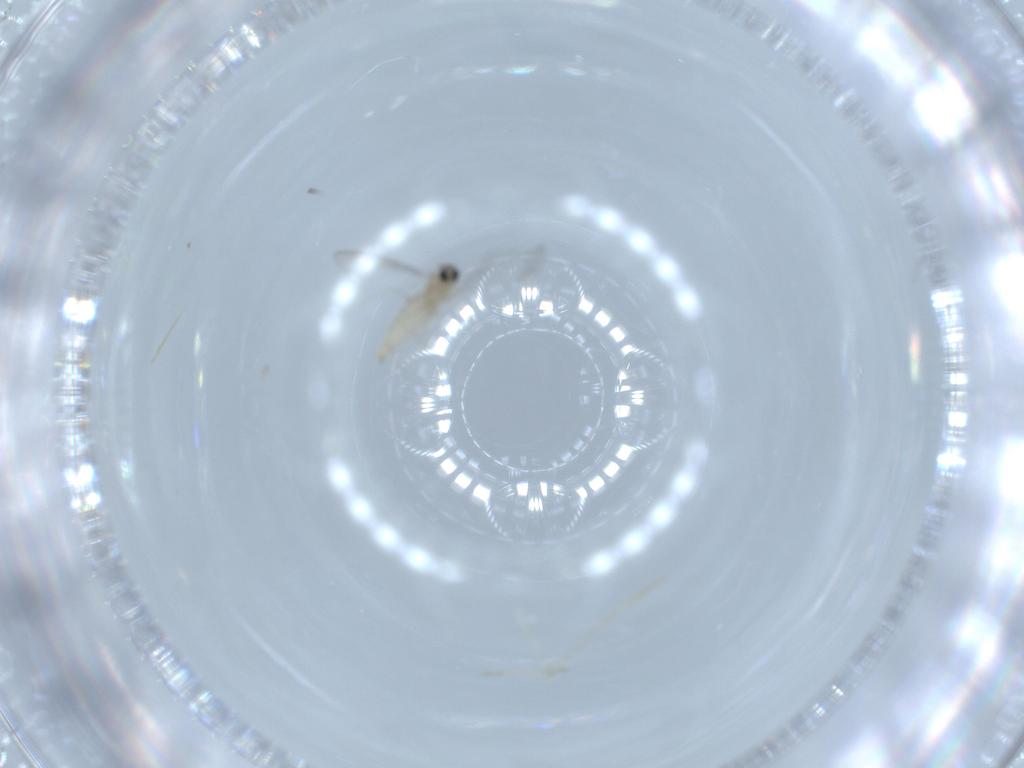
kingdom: Animalia
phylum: Arthropoda
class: Insecta
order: Diptera
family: Cecidomyiidae
